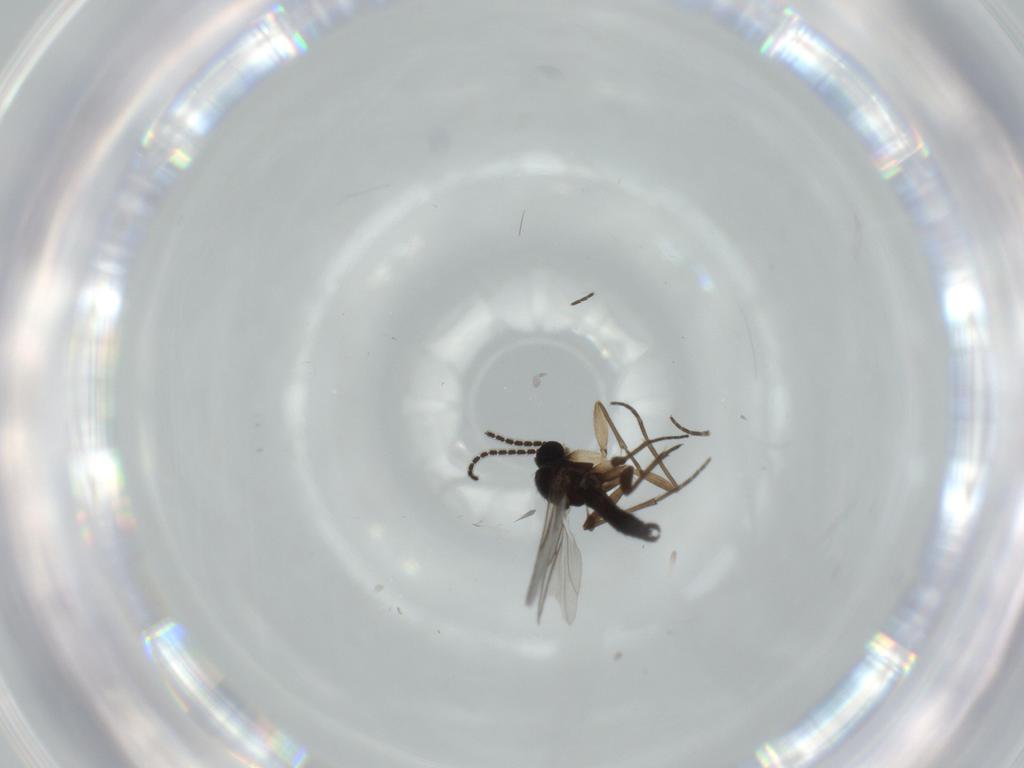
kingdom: Animalia
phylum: Arthropoda
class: Insecta
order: Diptera
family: Sciaridae
